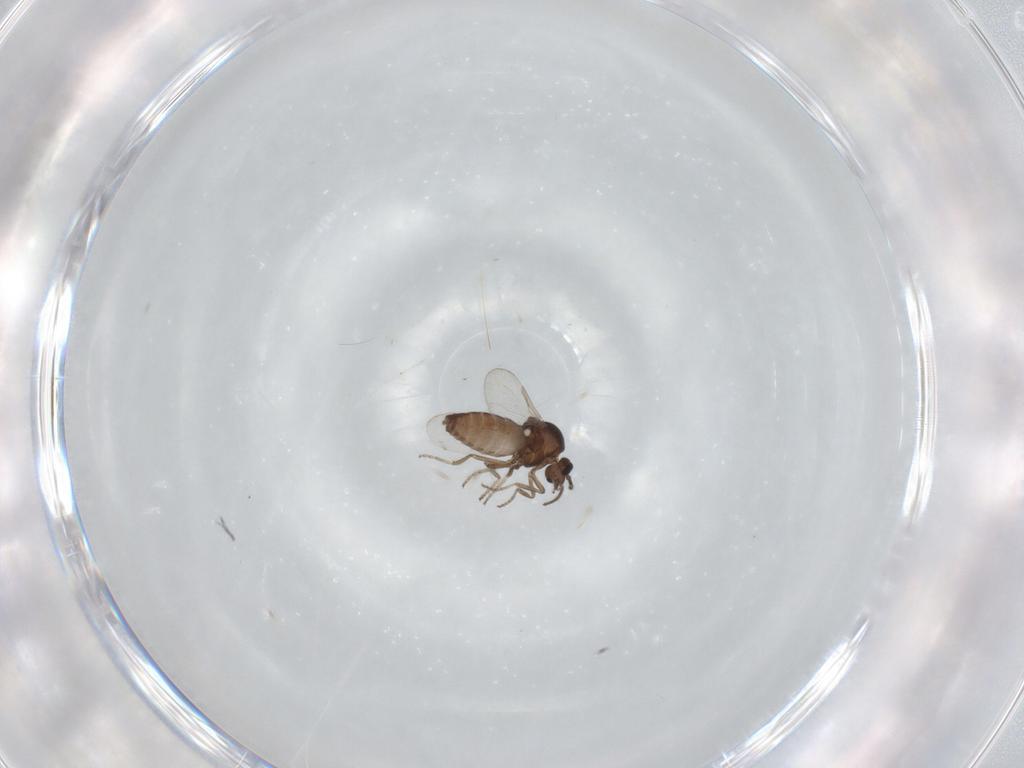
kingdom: Animalia
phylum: Arthropoda
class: Insecta
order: Diptera
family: Ceratopogonidae
